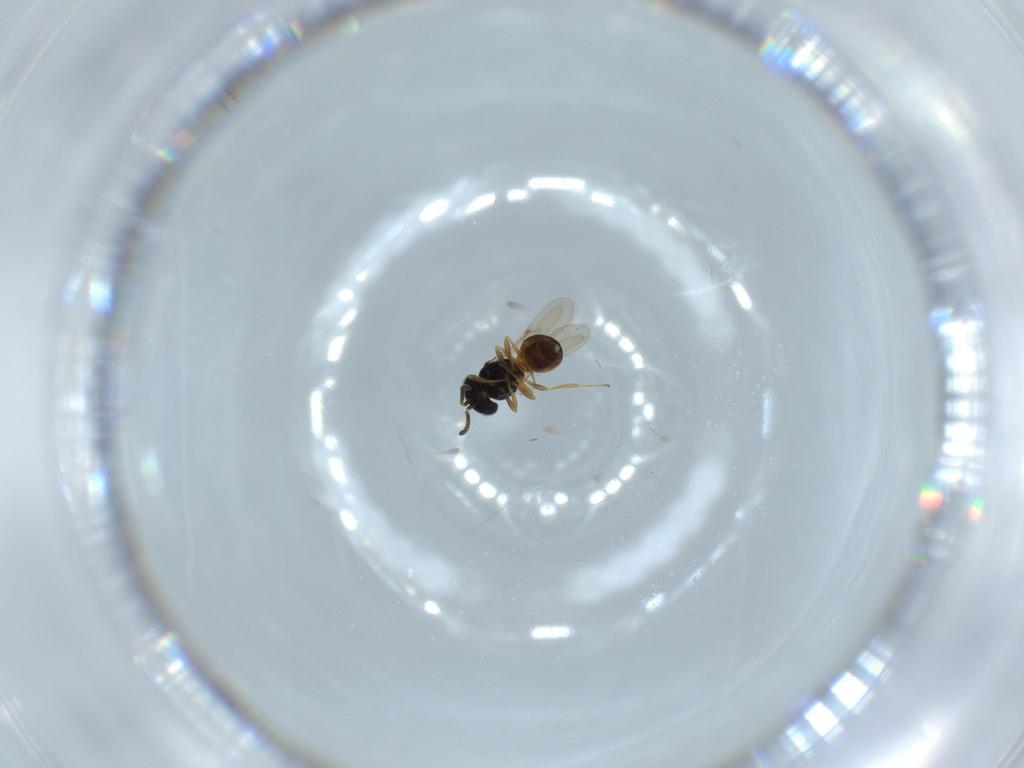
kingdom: Animalia
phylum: Arthropoda
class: Insecta
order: Hymenoptera
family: Scelionidae
